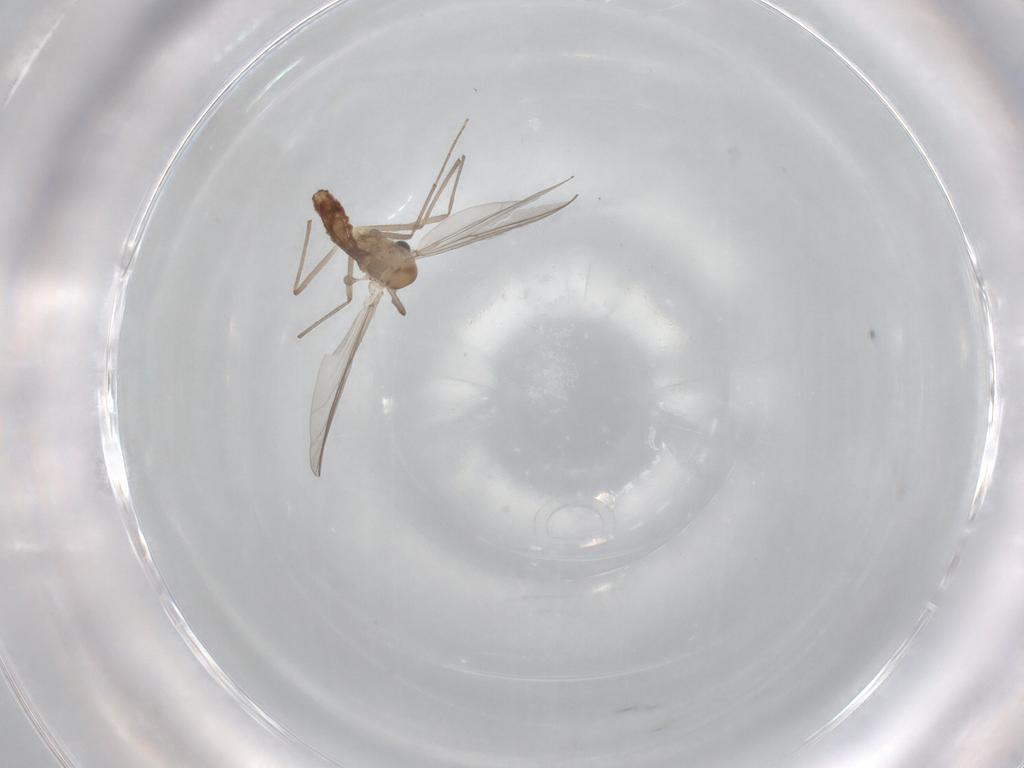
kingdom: Animalia
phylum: Arthropoda
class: Insecta
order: Diptera
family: Chironomidae
